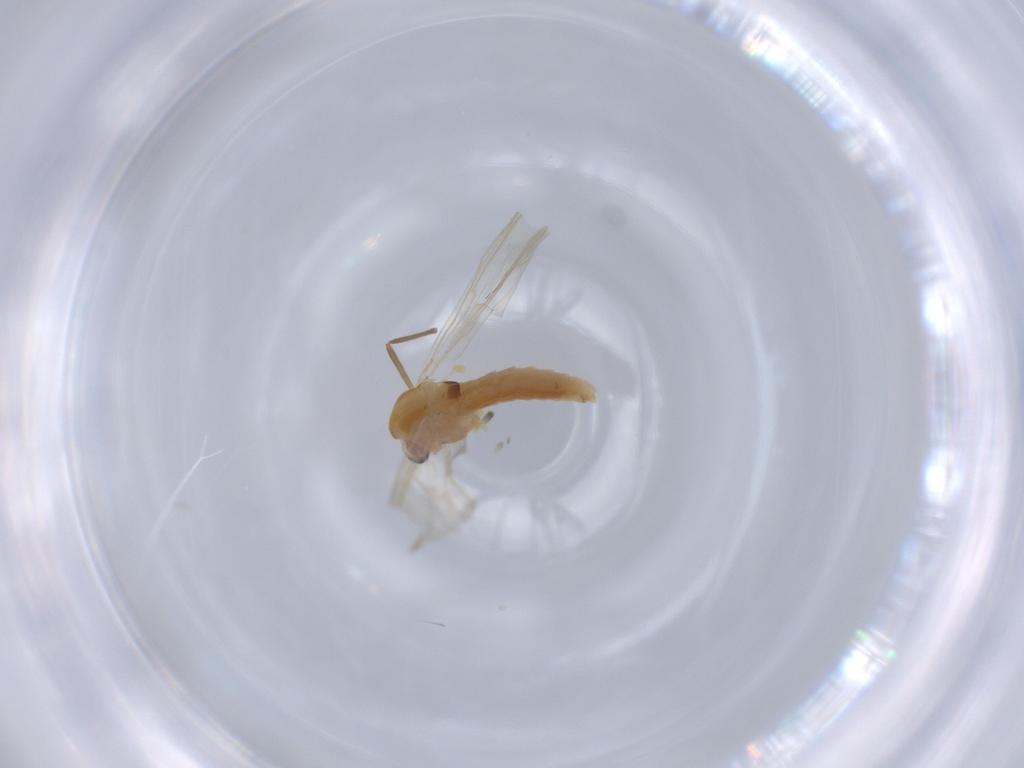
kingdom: Animalia
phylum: Arthropoda
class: Insecta
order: Diptera
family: Chironomidae
